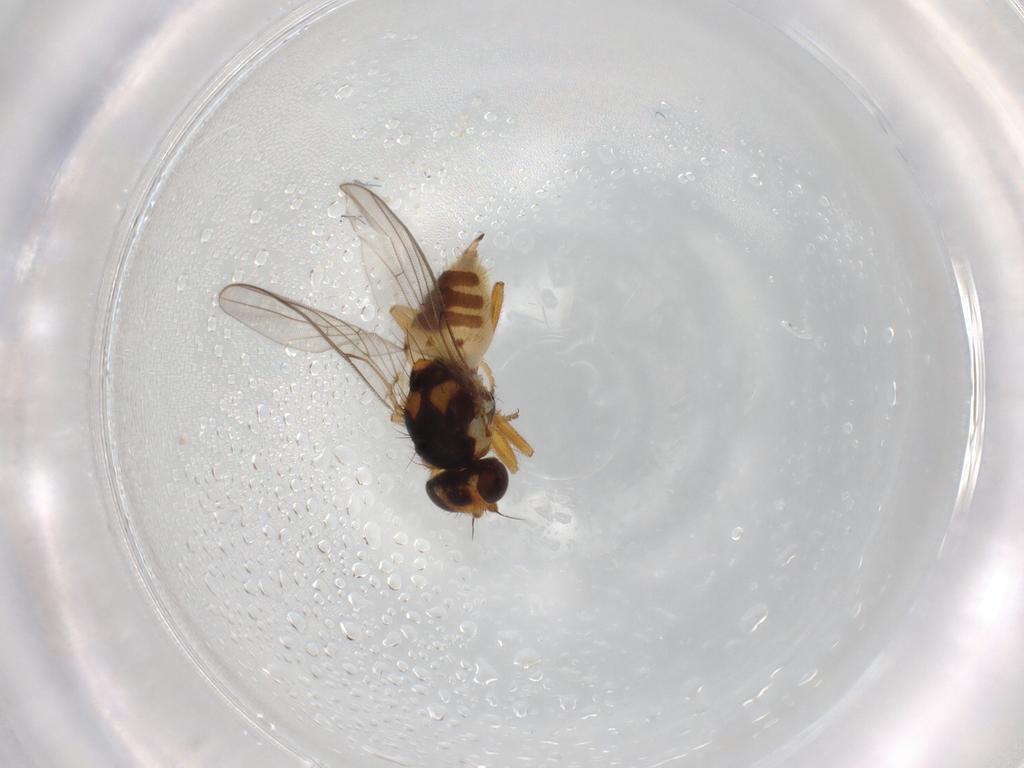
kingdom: Animalia
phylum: Arthropoda
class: Insecta
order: Diptera
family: Chloropidae
